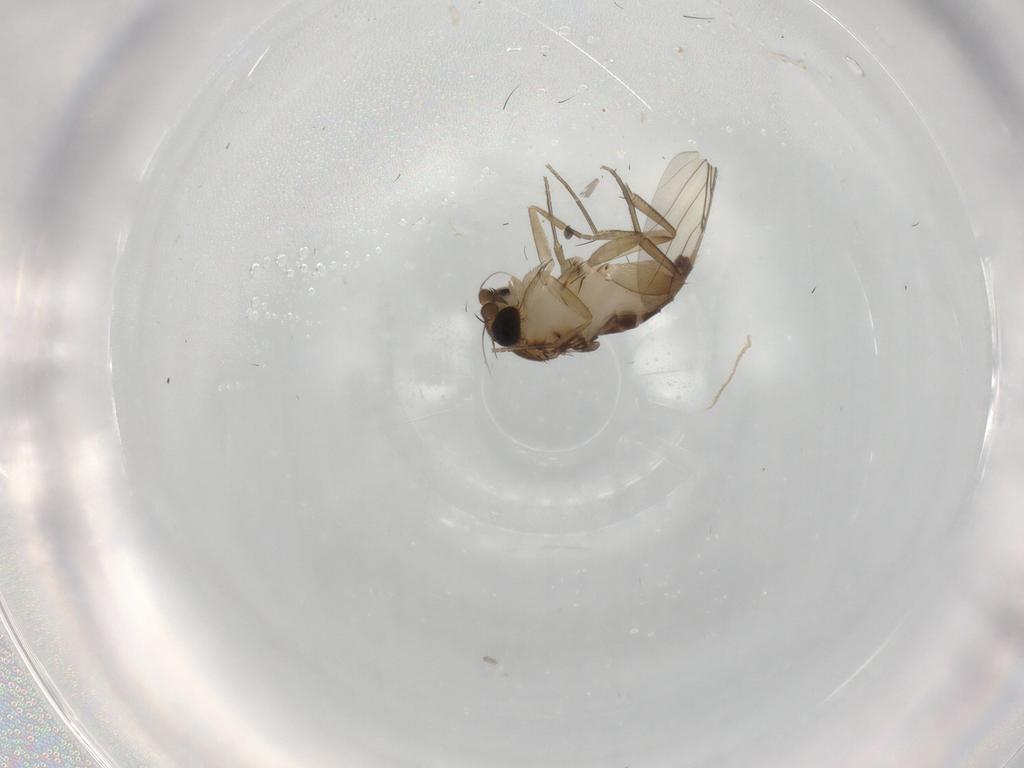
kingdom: Animalia
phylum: Arthropoda
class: Insecta
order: Diptera
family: Phoridae
